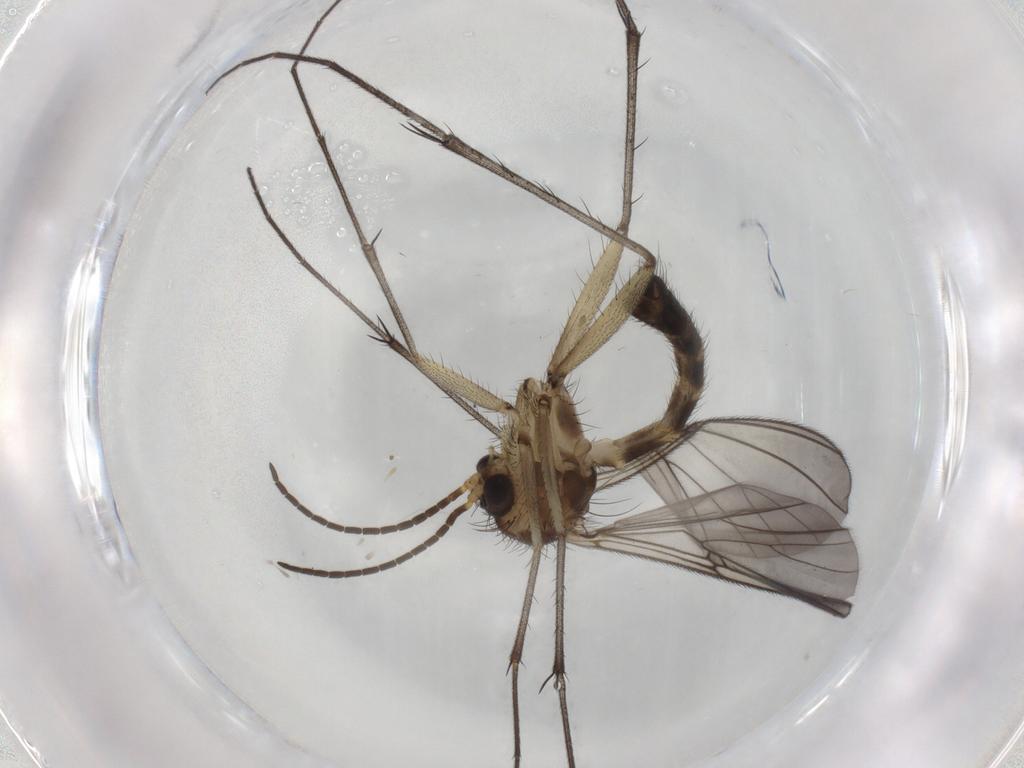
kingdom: Animalia
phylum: Arthropoda
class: Insecta
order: Diptera
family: Mycetophilidae
